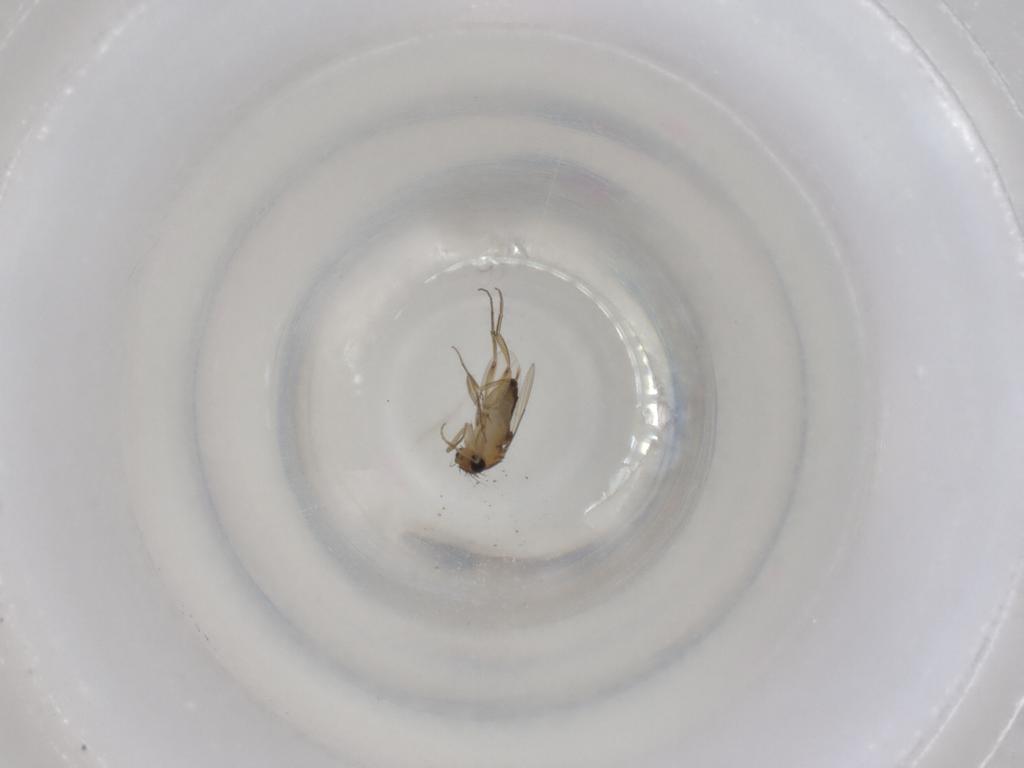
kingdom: Animalia
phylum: Arthropoda
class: Insecta
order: Diptera
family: Phoridae
